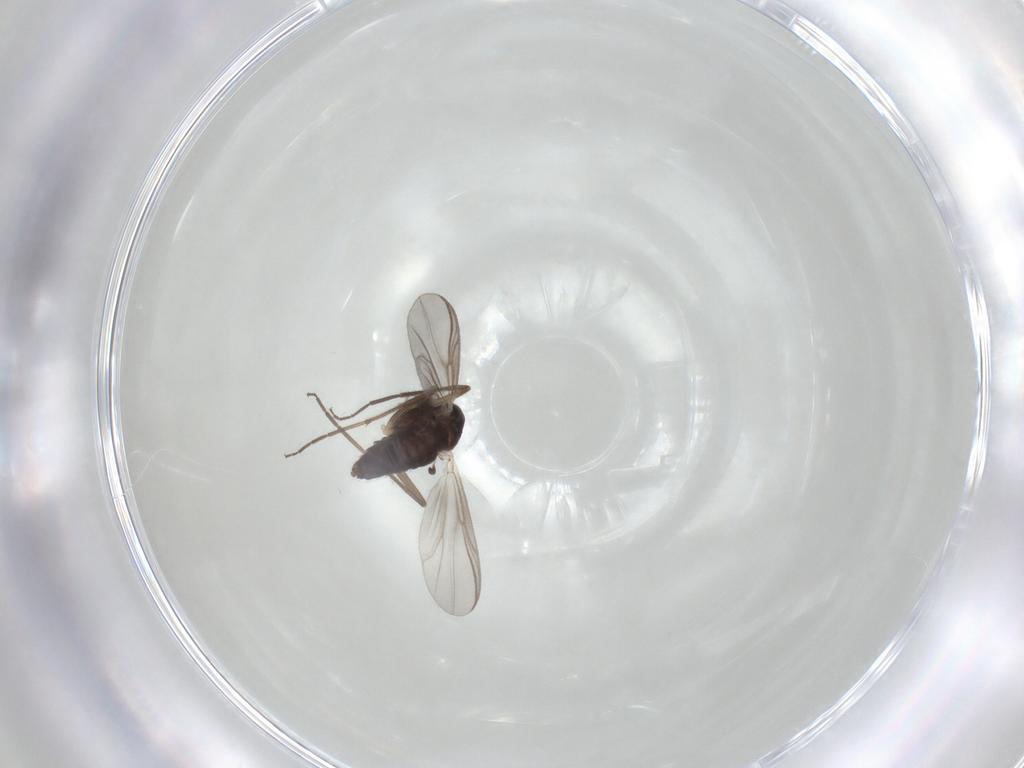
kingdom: Animalia
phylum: Arthropoda
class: Insecta
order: Diptera
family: Chironomidae
